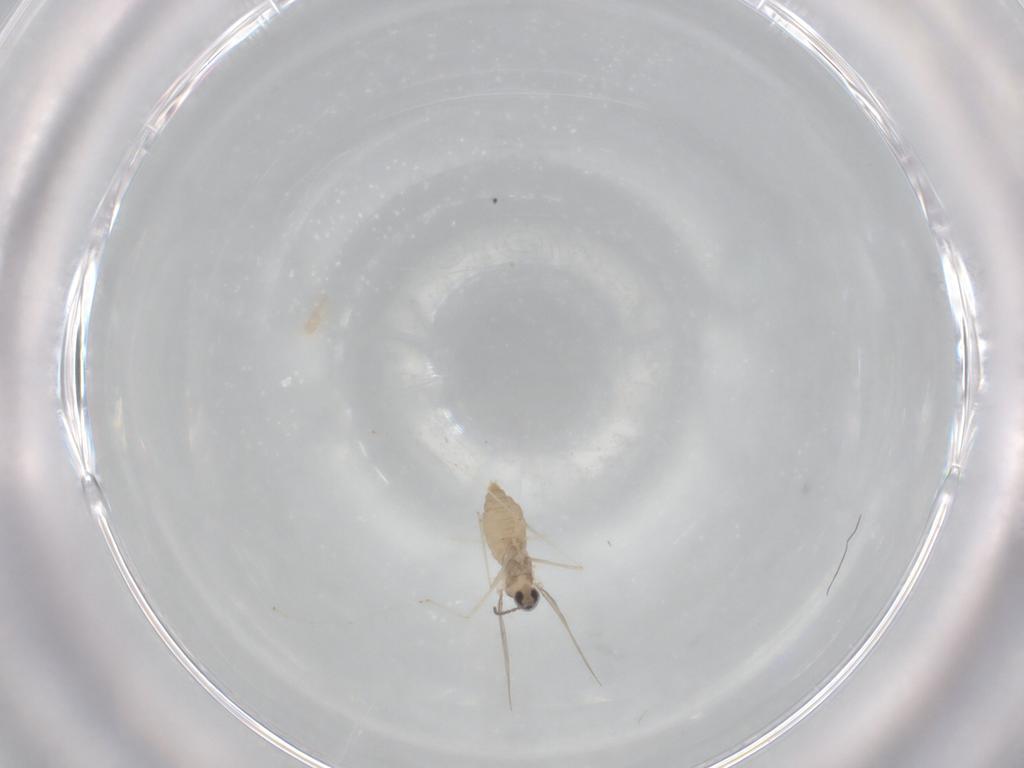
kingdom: Animalia
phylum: Arthropoda
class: Insecta
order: Diptera
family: Cecidomyiidae
